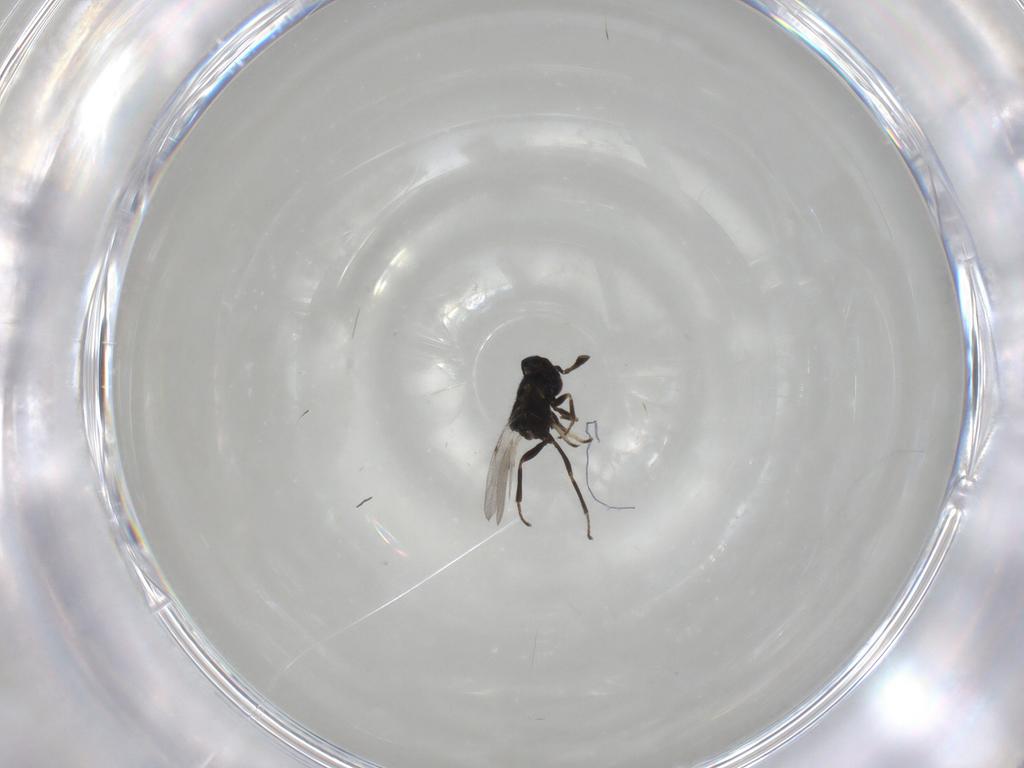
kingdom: Animalia
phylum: Arthropoda
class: Insecta
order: Hymenoptera
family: Encyrtidae
